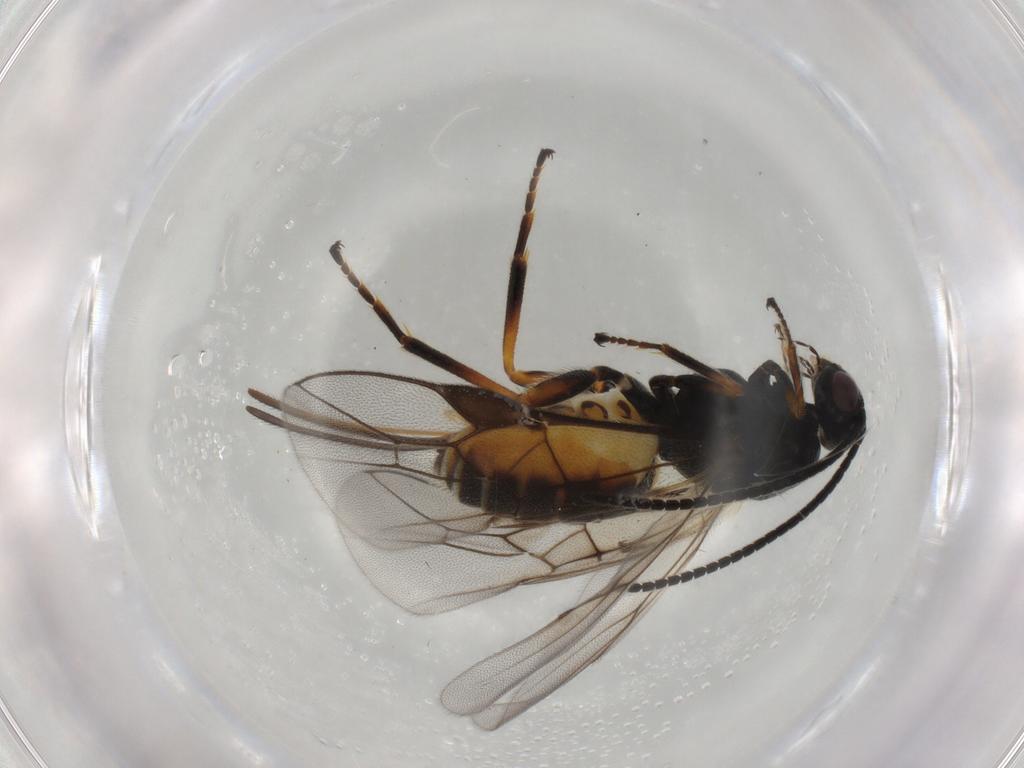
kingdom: Animalia
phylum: Arthropoda
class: Insecta
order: Hymenoptera
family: Braconidae
